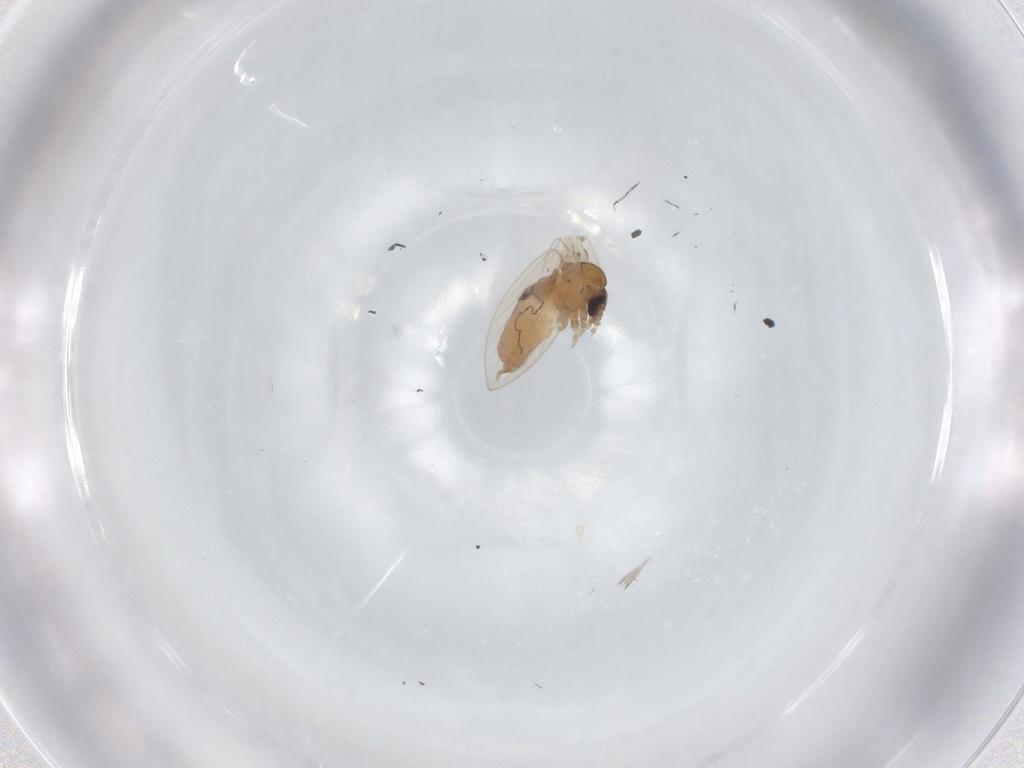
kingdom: Animalia
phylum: Arthropoda
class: Insecta
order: Diptera
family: Psychodidae
